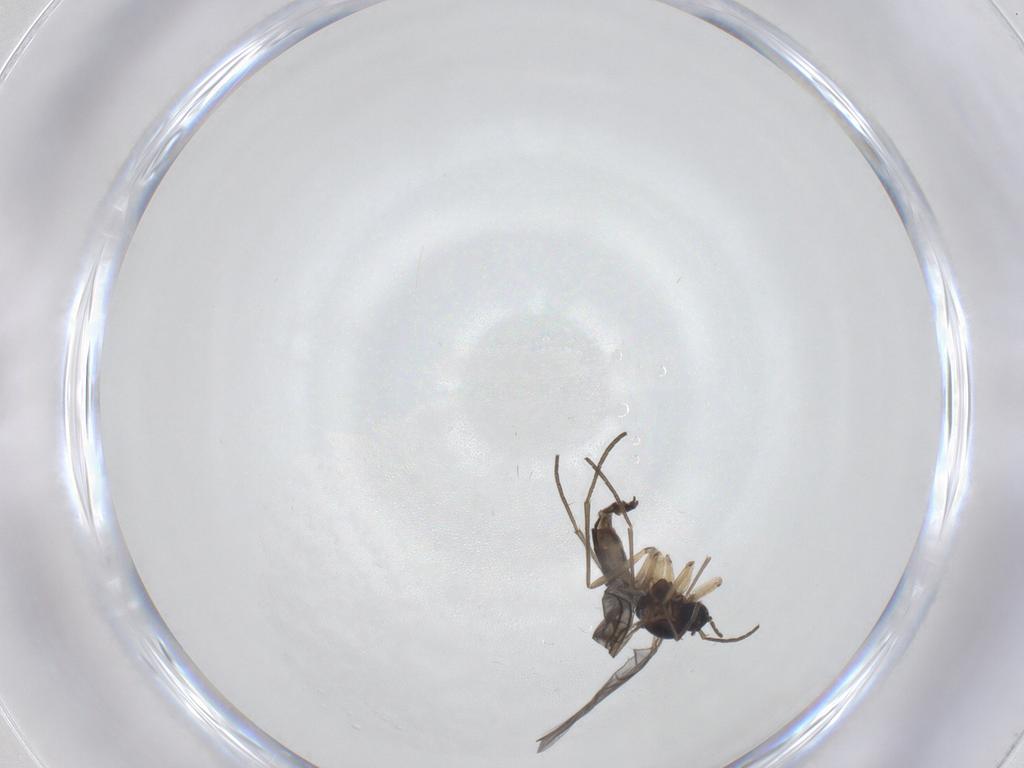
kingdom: Animalia
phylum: Arthropoda
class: Insecta
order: Diptera
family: Sciaridae
